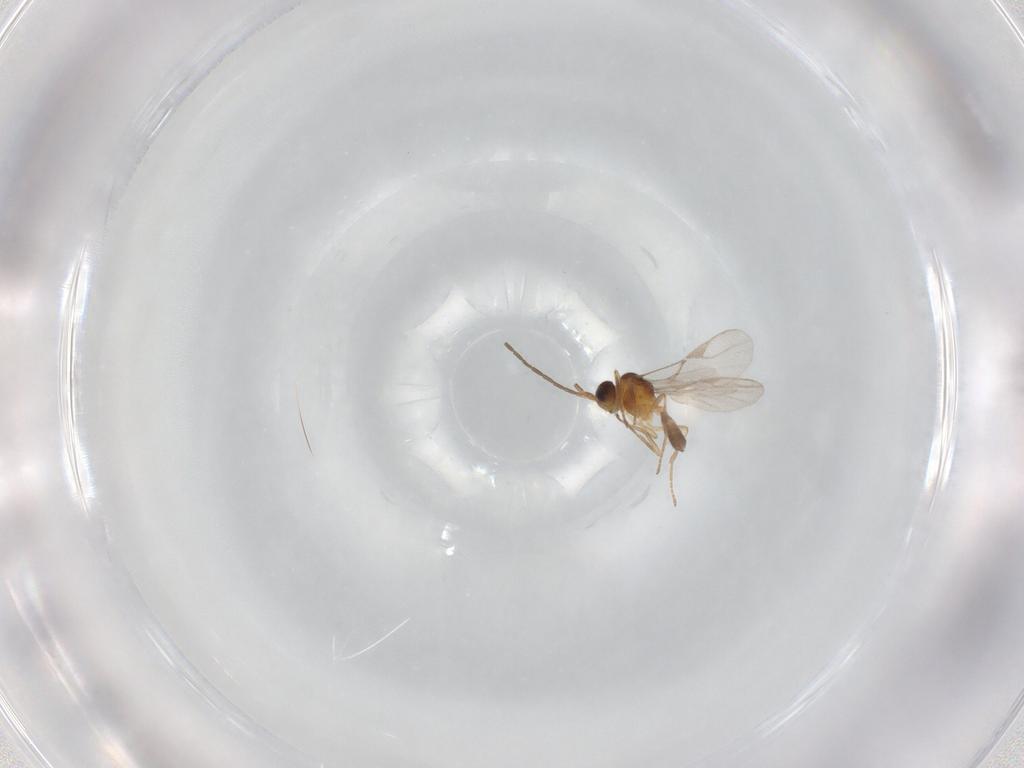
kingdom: Animalia
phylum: Arthropoda
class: Insecta
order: Hymenoptera
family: Braconidae
